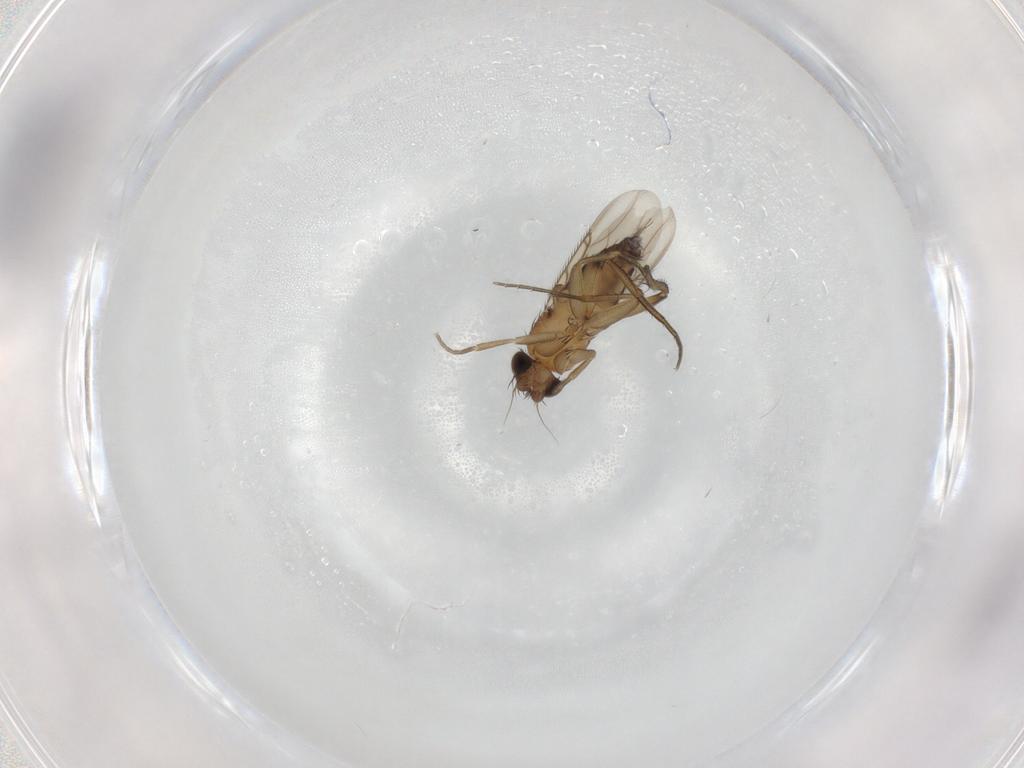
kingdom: Animalia
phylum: Arthropoda
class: Insecta
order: Diptera
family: Phoridae
